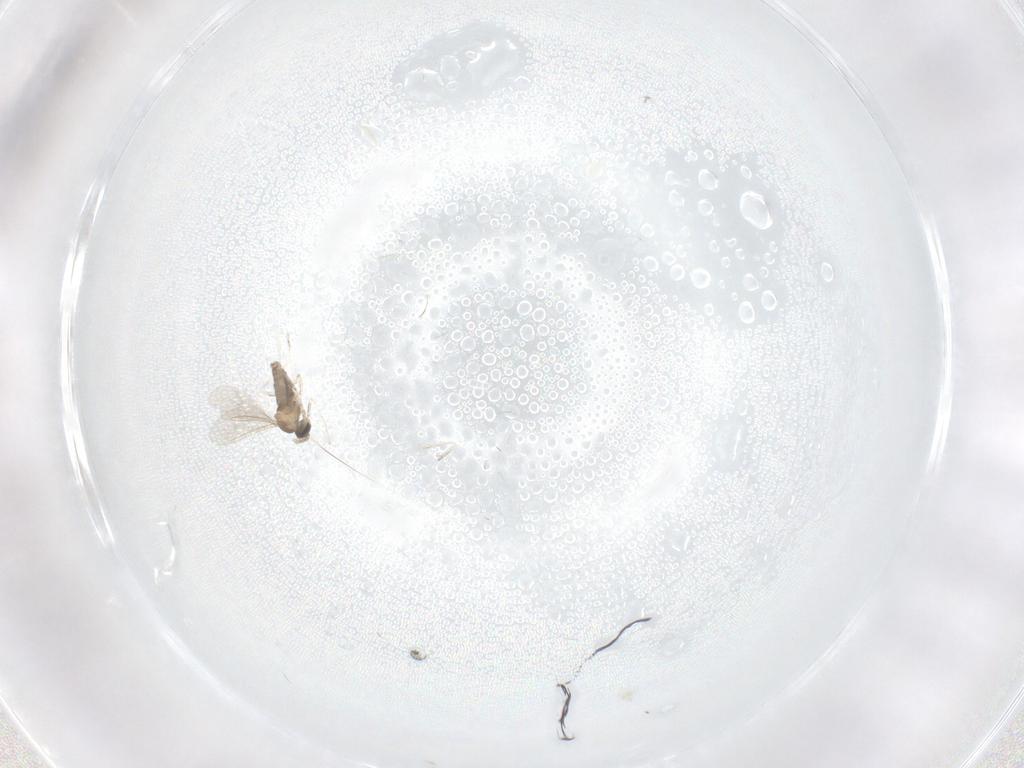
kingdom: Animalia
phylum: Arthropoda
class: Insecta
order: Diptera
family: Cecidomyiidae
